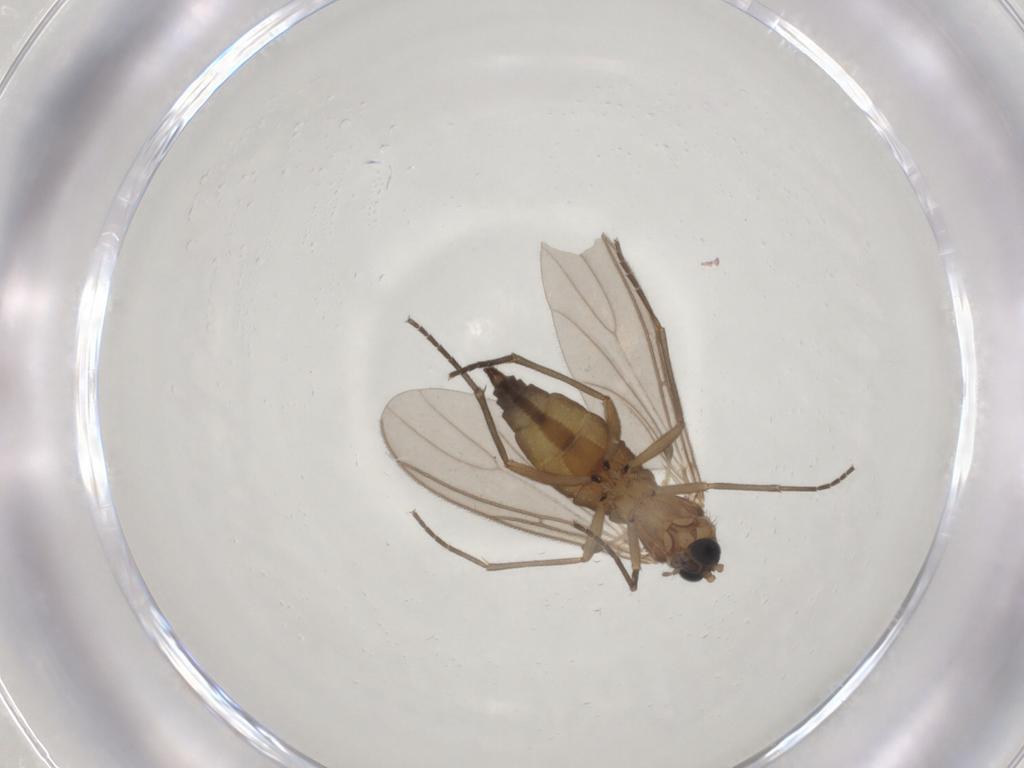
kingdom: Animalia
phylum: Arthropoda
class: Insecta
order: Diptera
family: Sciaridae
